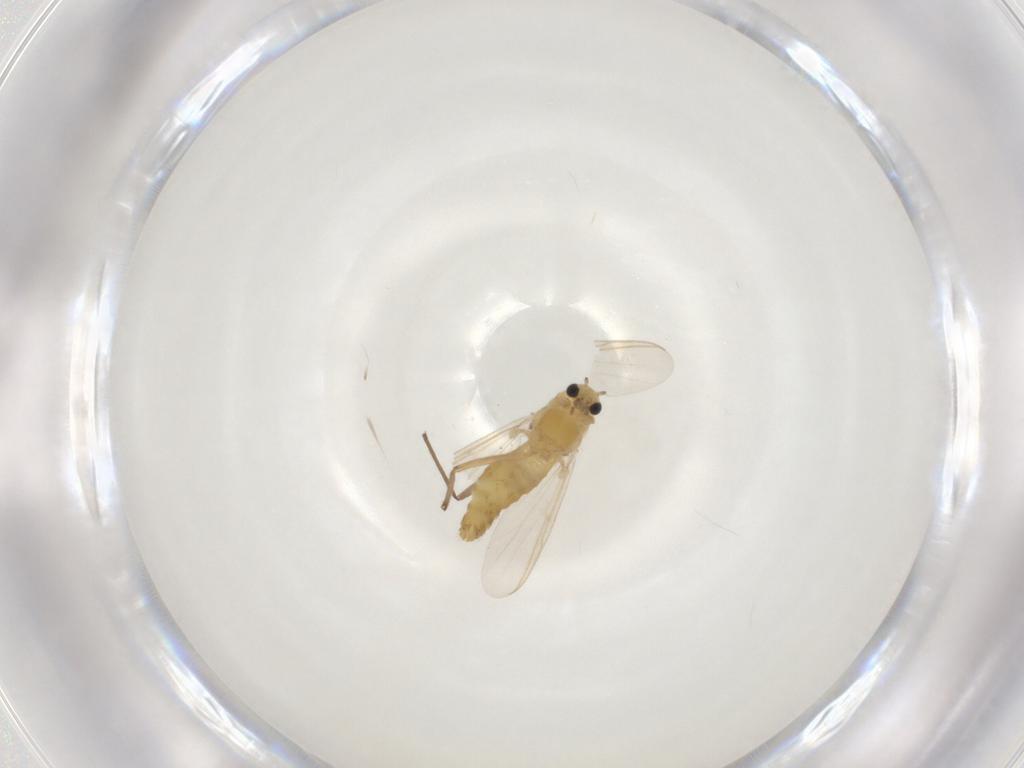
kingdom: Animalia
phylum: Arthropoda
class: Insecta
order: Diptera
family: Chironomidae
